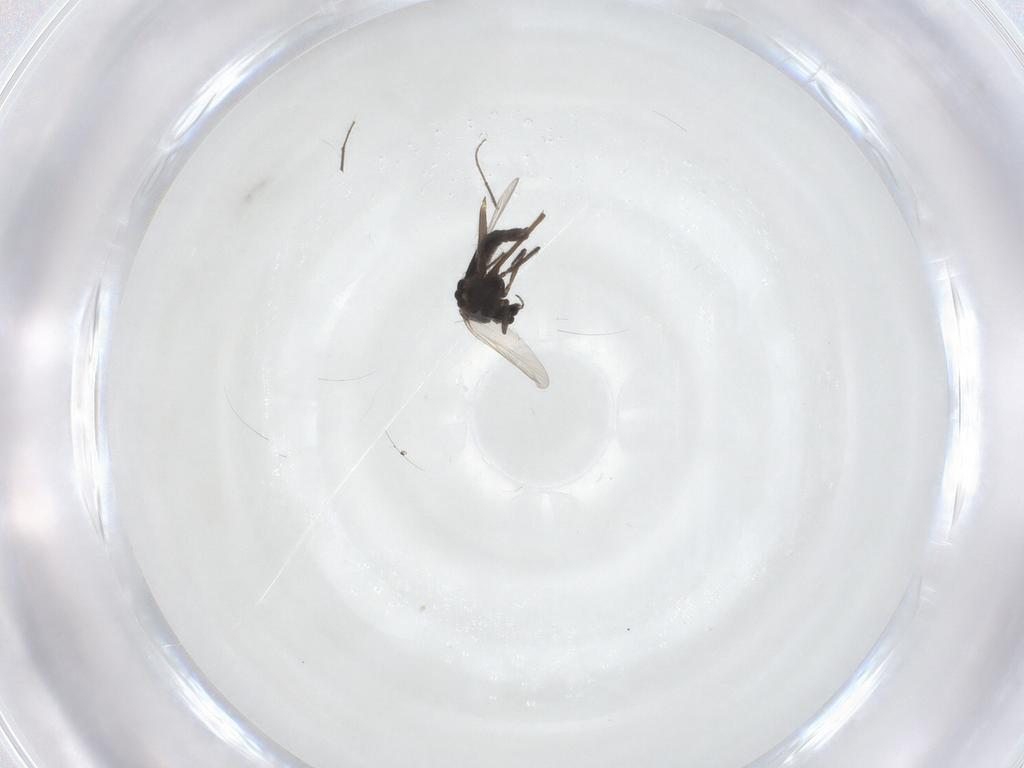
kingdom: Animalia
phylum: Arthropoda
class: Insecta
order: Diptera
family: Chironomidae
